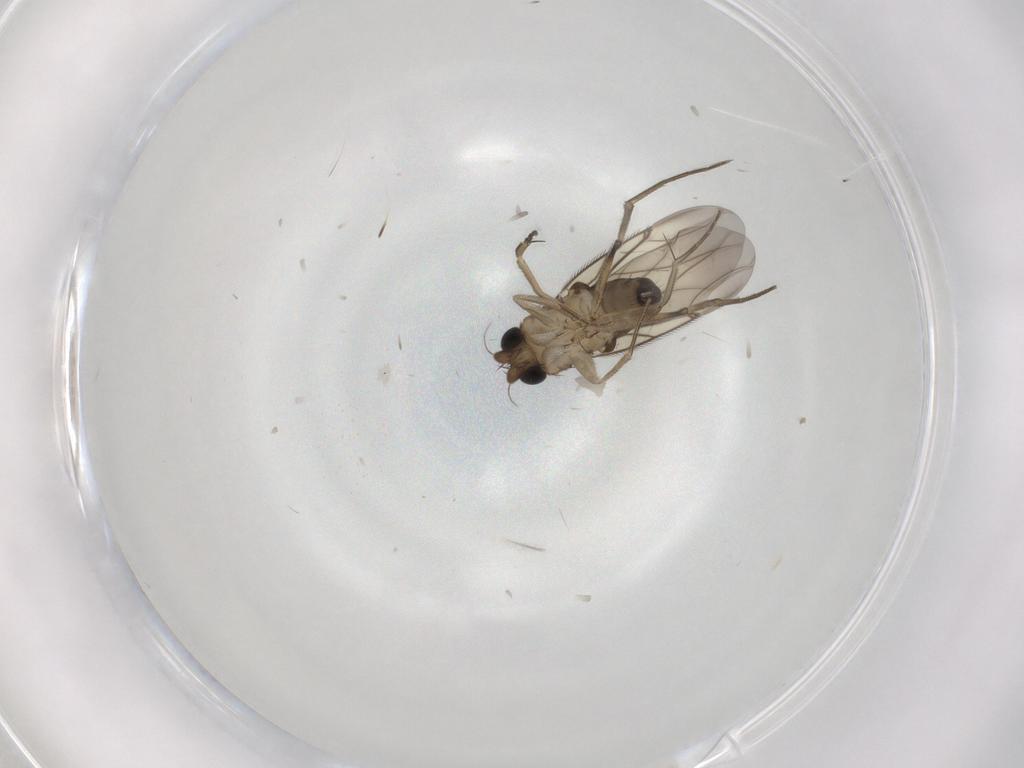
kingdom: Animalia
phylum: Arthropoda
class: Insecta
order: Diptera
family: Phoridae
